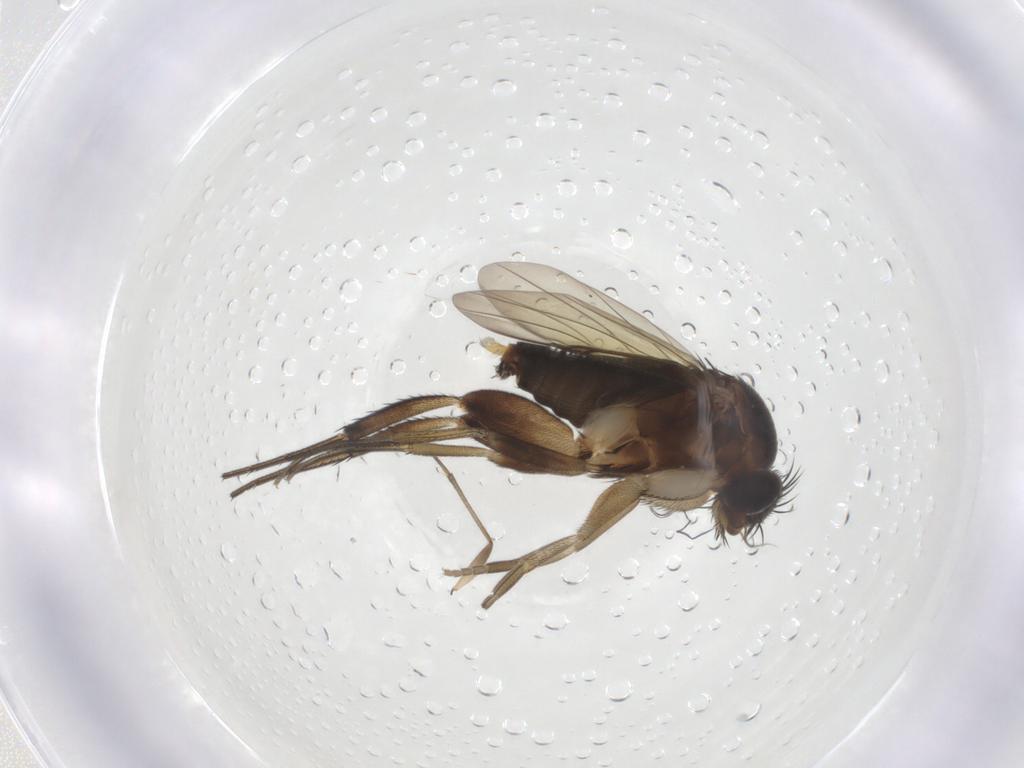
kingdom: Animalia
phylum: Arthropoda
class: Insecta
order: Diptera
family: Phoridae
